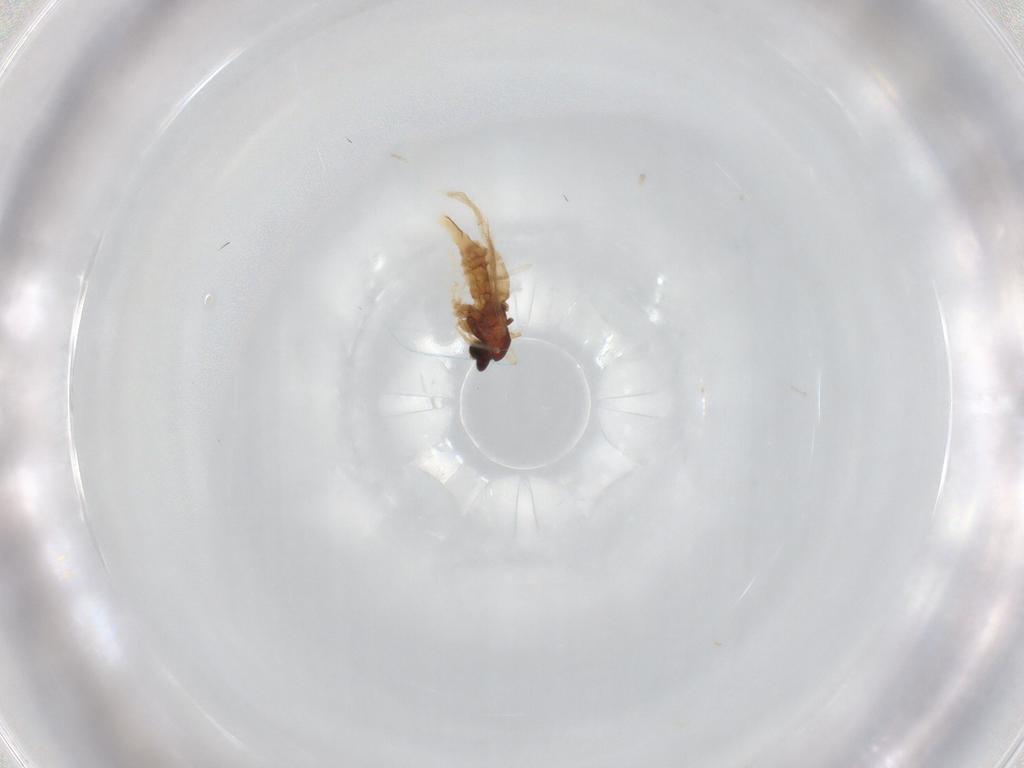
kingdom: Animalia
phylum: Arthropoda
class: Insecta
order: Diptera
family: Cecidomyiidae
